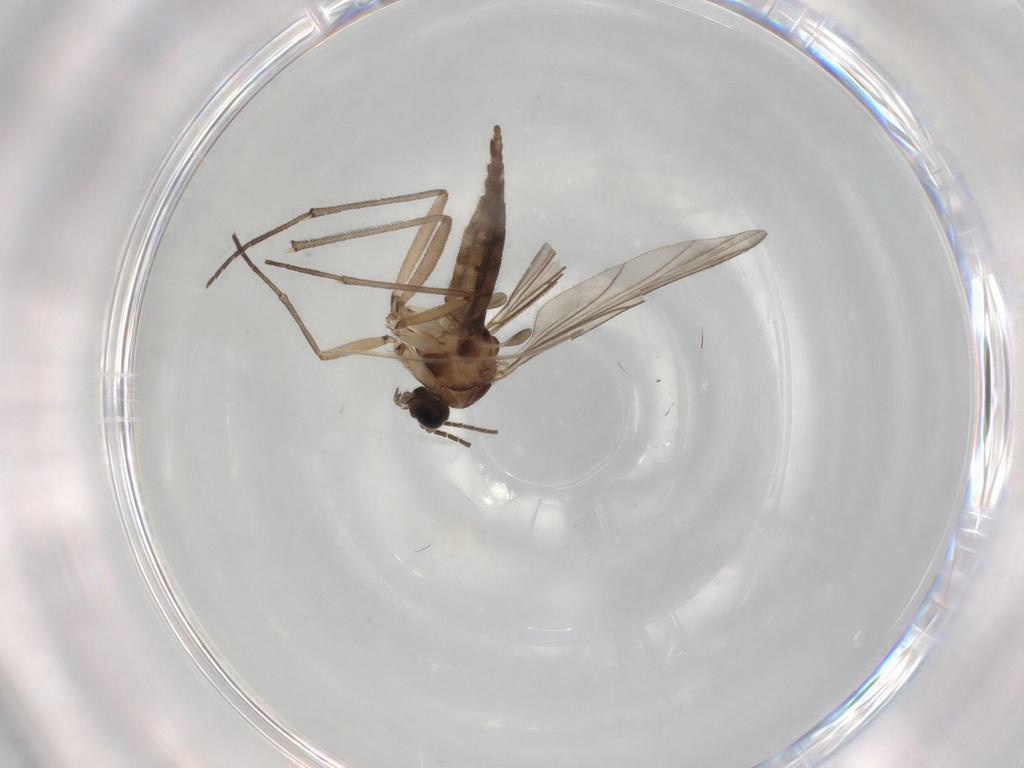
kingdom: Animalia
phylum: Arthropoda
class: Insecta
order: Diptera
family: Sciaridae
